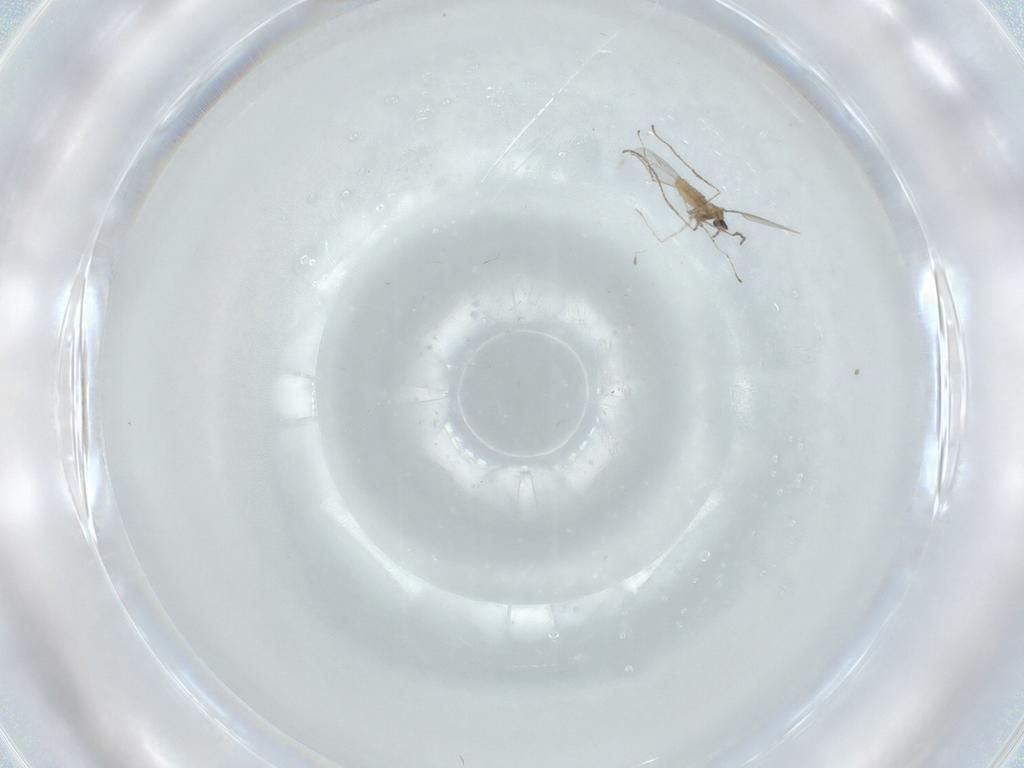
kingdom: Animalia
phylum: Arthropoda
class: Insecta
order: Diptera
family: Cecidomyiidae
